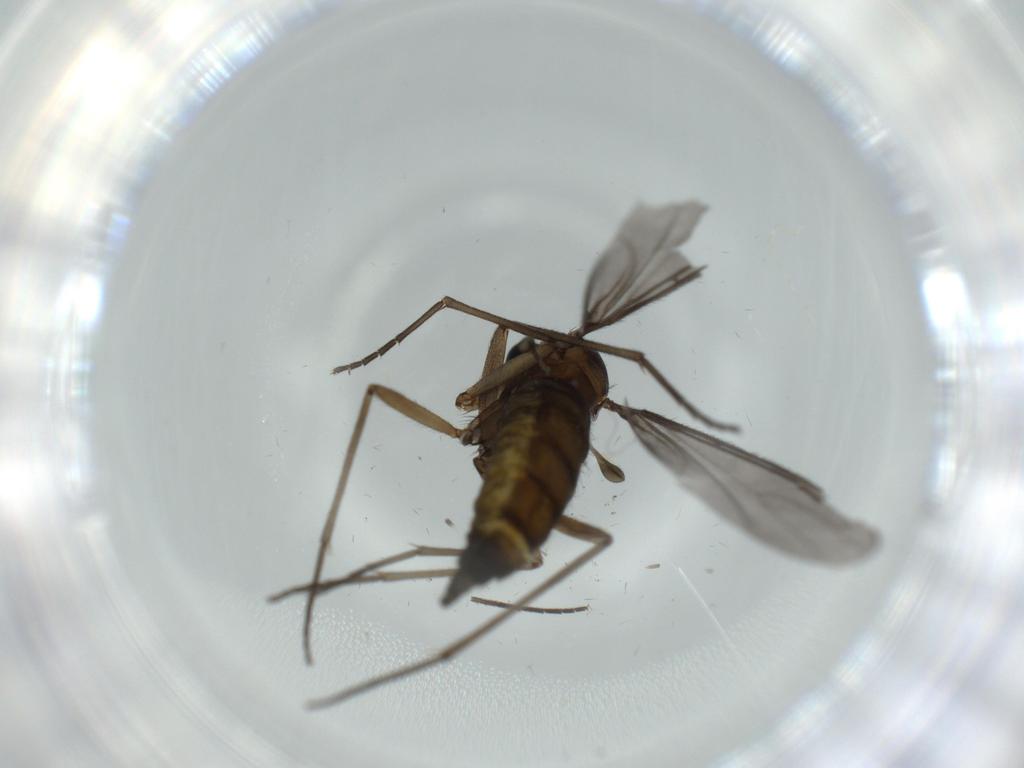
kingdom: Animalia
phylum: Arthropoda
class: Insecta
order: Diptera
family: Sciaridae
